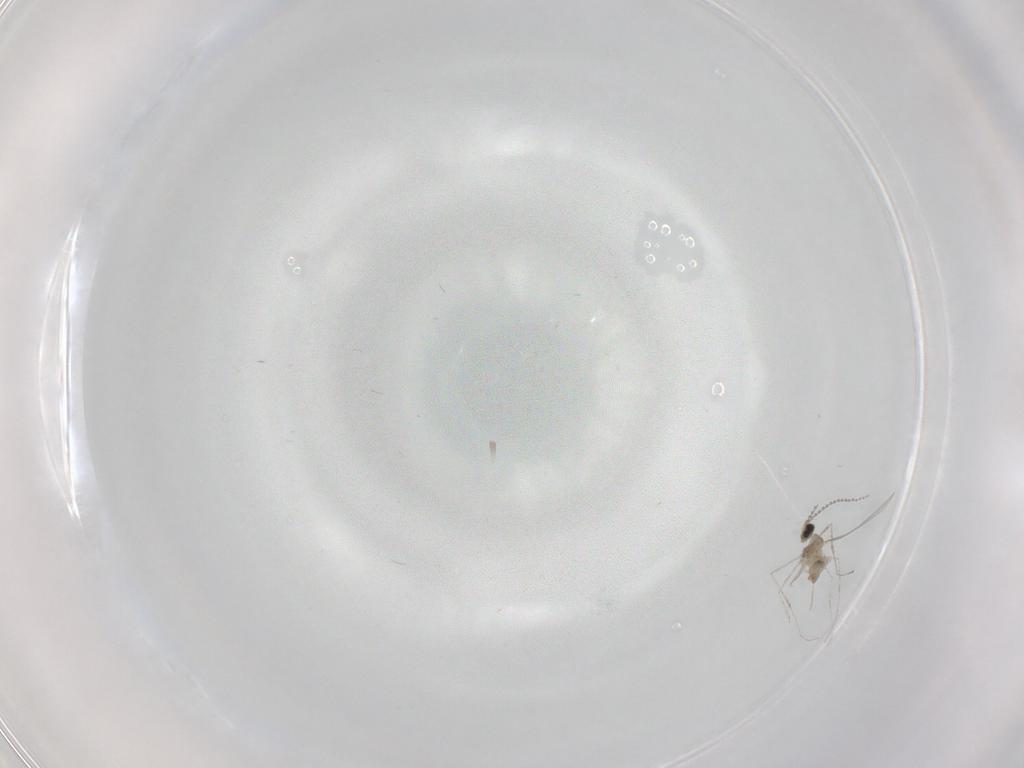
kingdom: Animalia
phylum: Arthropoda
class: Insecta
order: Diptera
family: Cecidomyiidae
